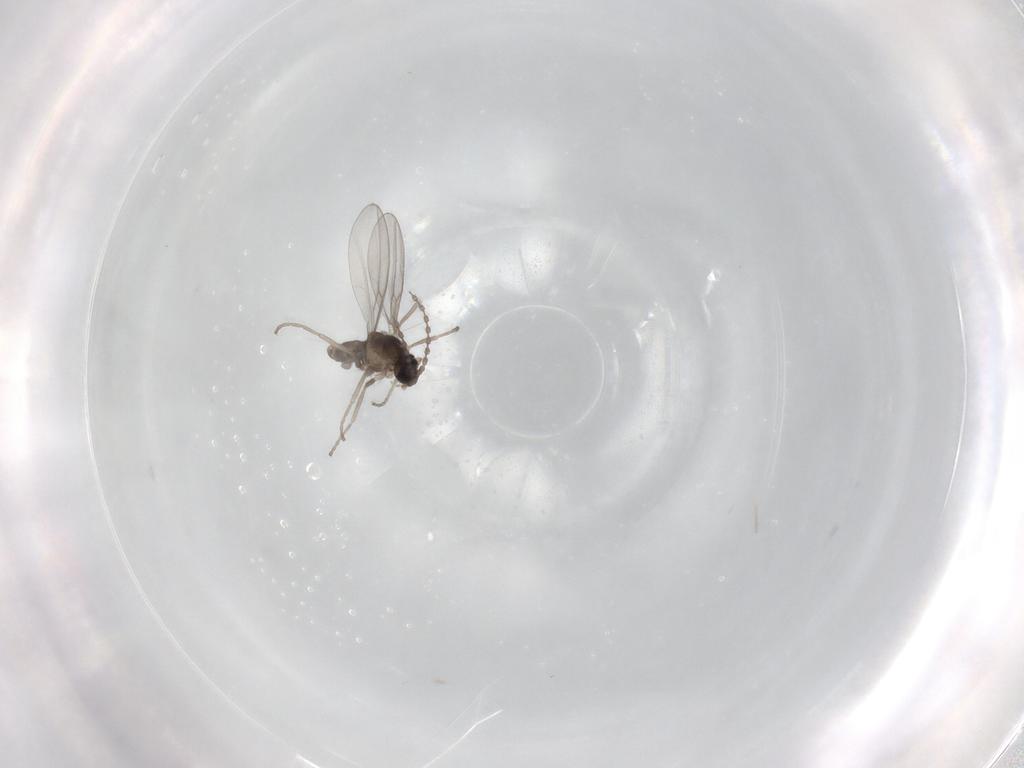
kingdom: Animalia
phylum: Arthropoda
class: Insecta
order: Diptera
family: Cecidomyiidae
